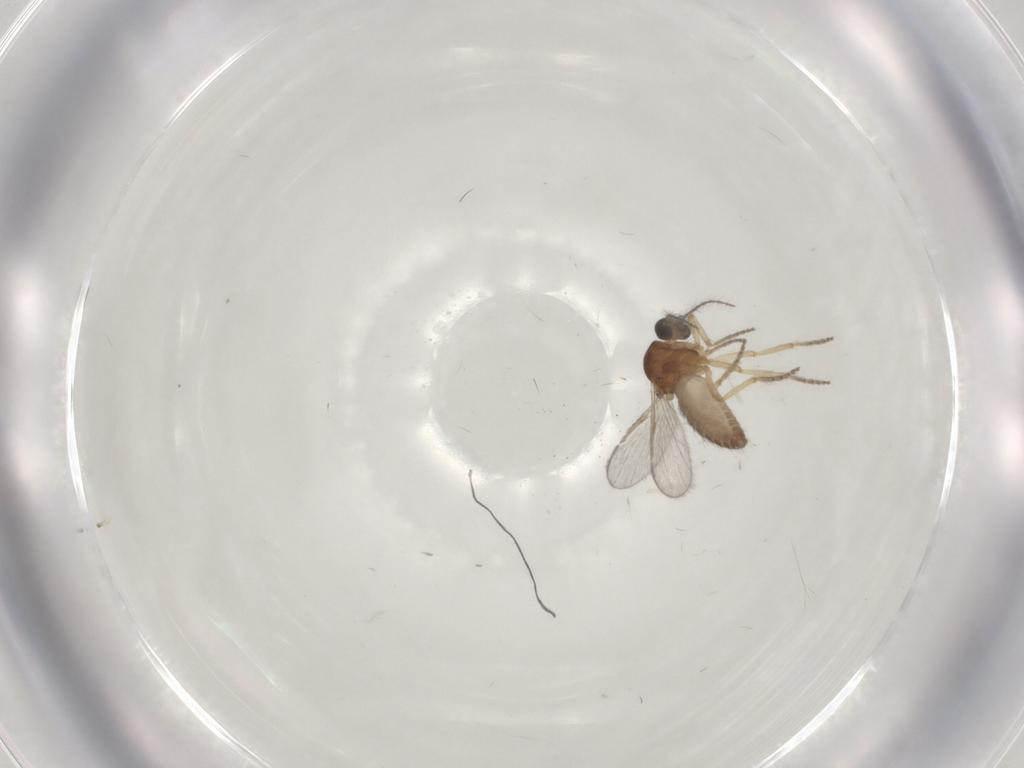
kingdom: Animalia
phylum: Arthropoda
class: Insecta
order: Diptera
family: Ceratopogonidae
